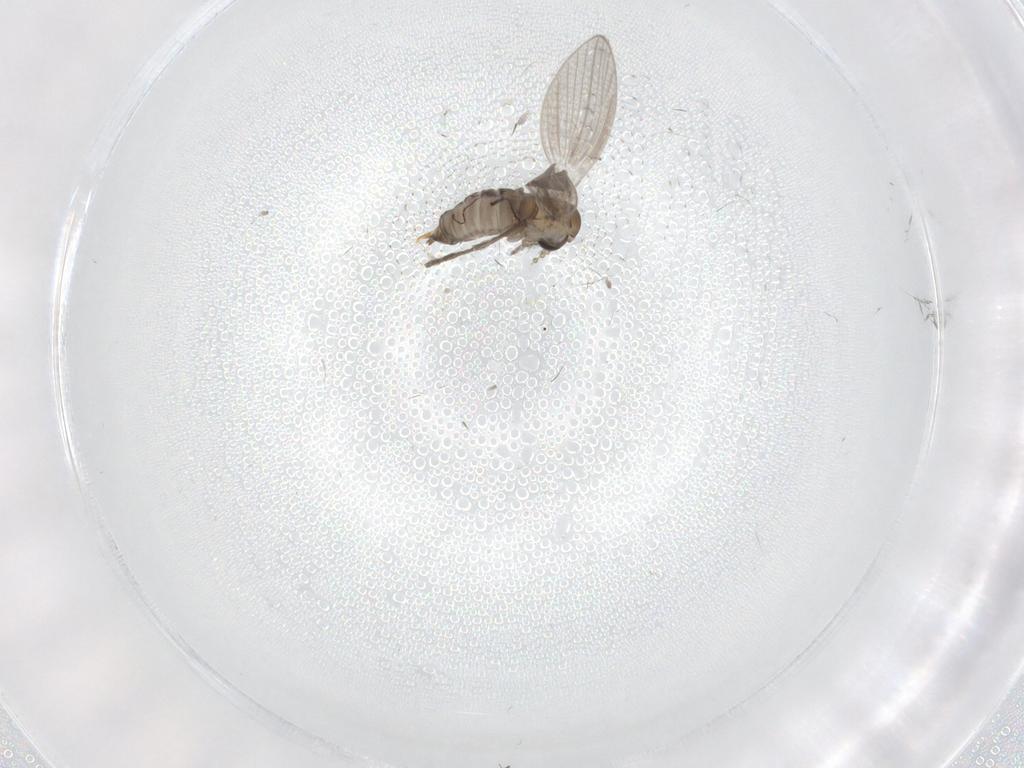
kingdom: Animalia
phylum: Arthropoda
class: Insecta
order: Diptera
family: Psychodidae
